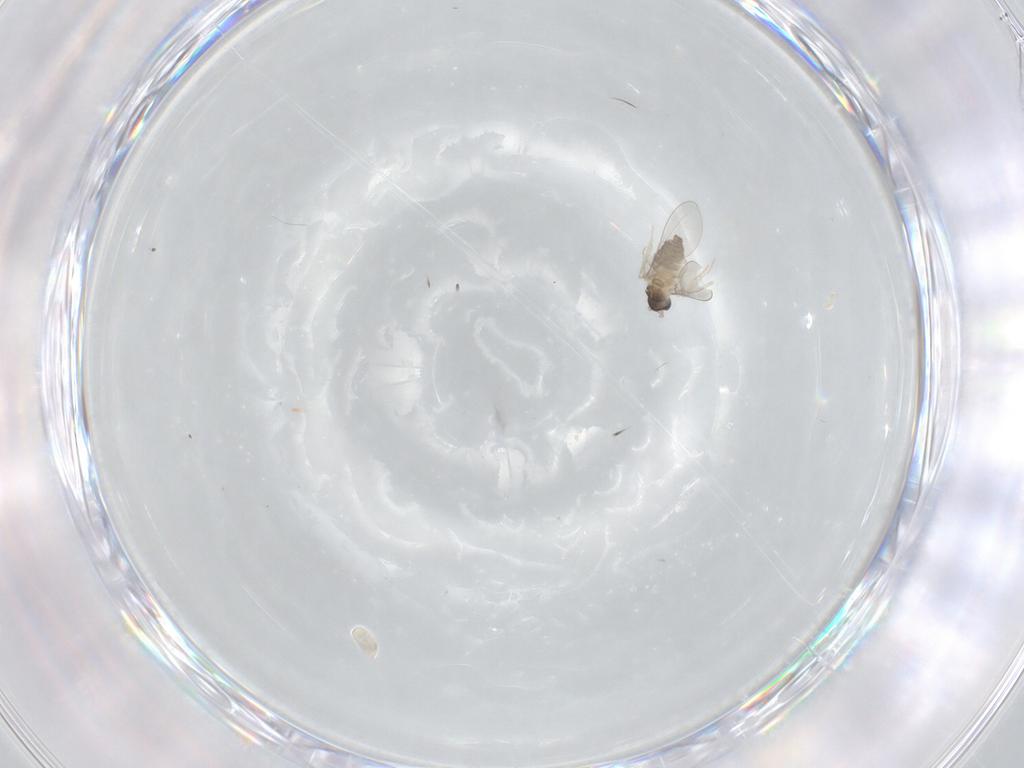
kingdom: Animalia
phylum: Arthropoda
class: Insecta
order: Diptera
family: Cecidomyiidae
